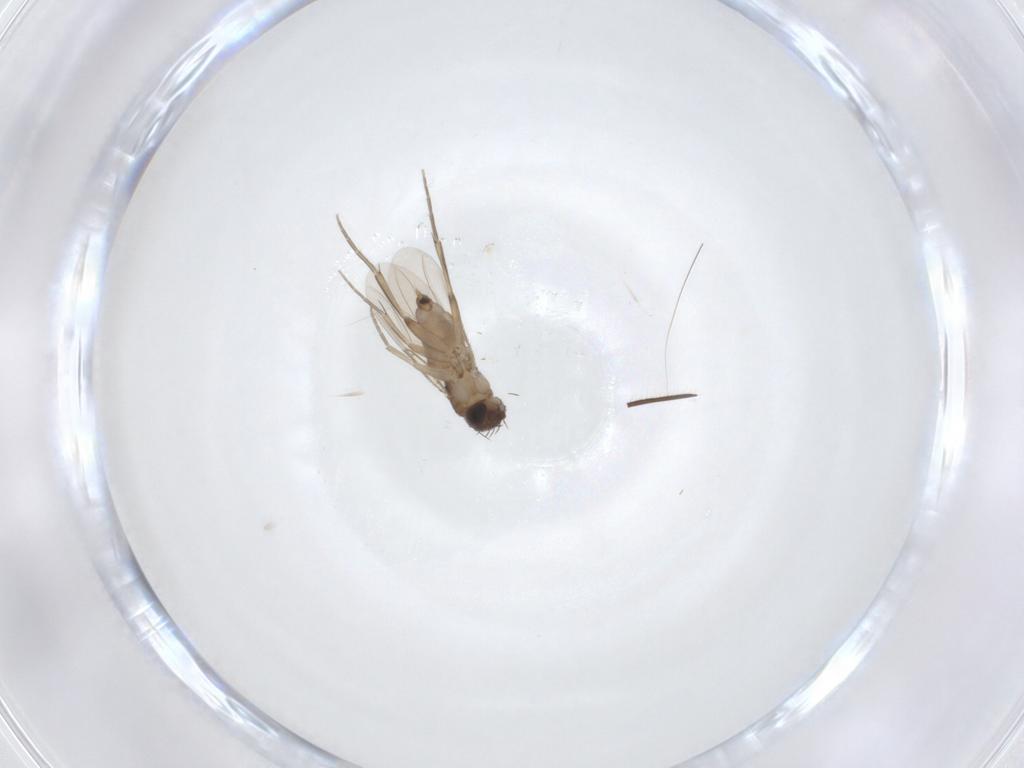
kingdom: Animalia
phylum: Arthropoda
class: Insecta
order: Diptera
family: Phoridae
